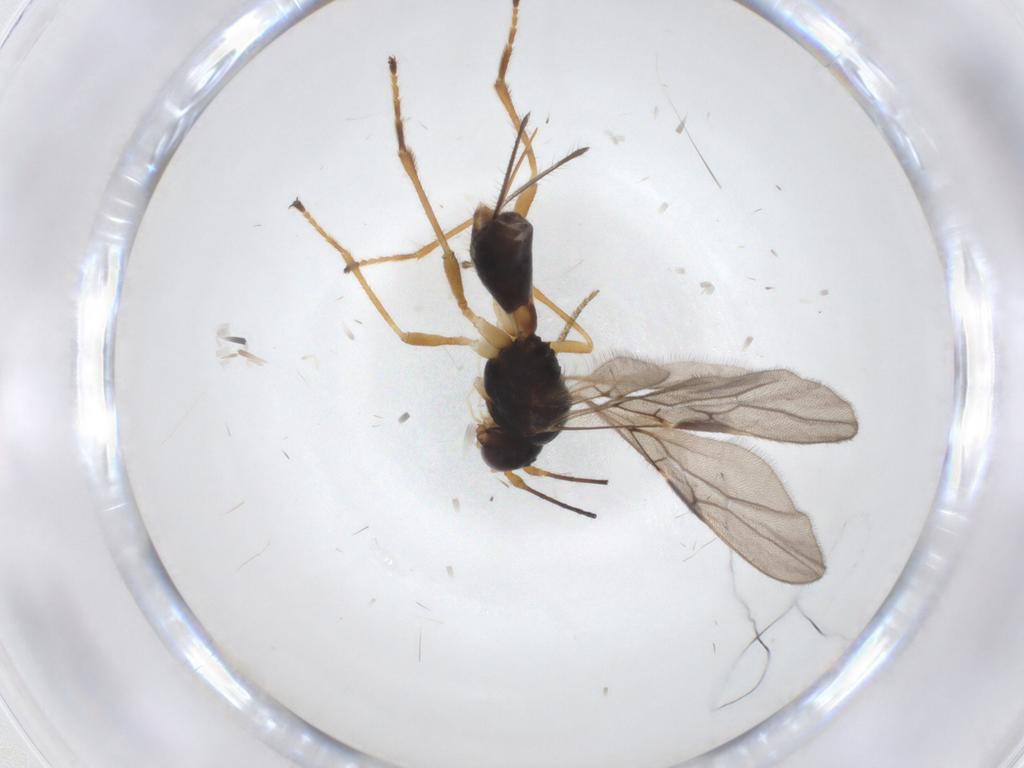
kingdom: Animalia
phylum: Arthropoda
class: Insecta
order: Hymenoptera
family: Braconidae
